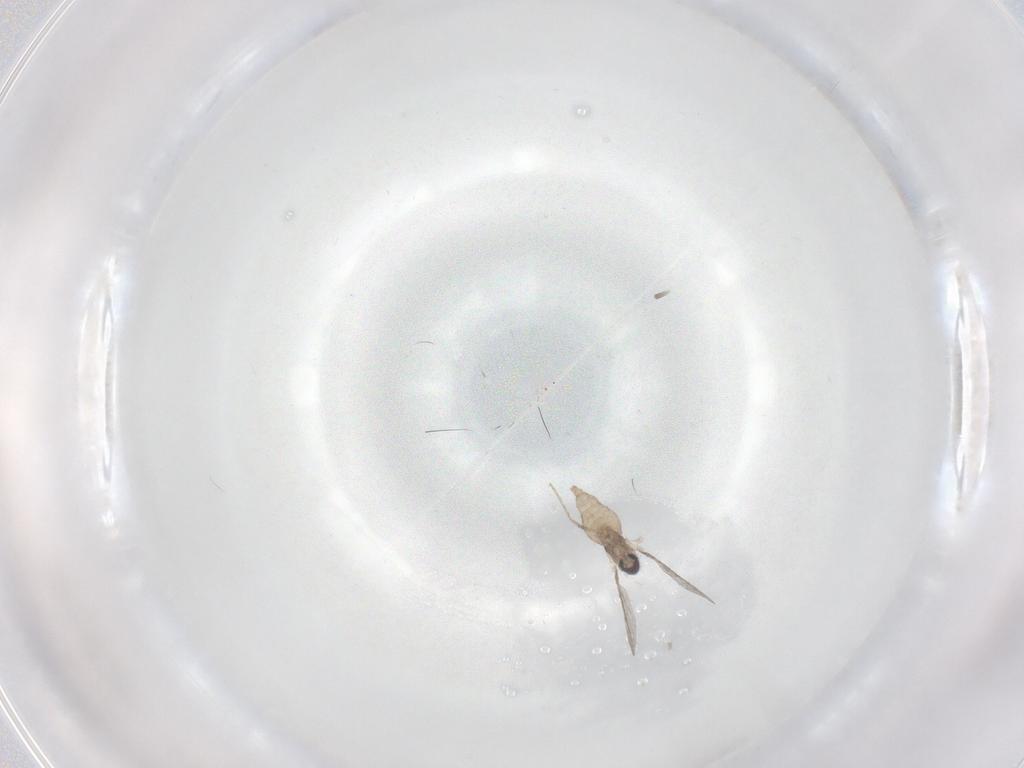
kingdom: Animalia
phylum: Arthropoda
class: Insecta
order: Diptera
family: Cecidomyiidae
